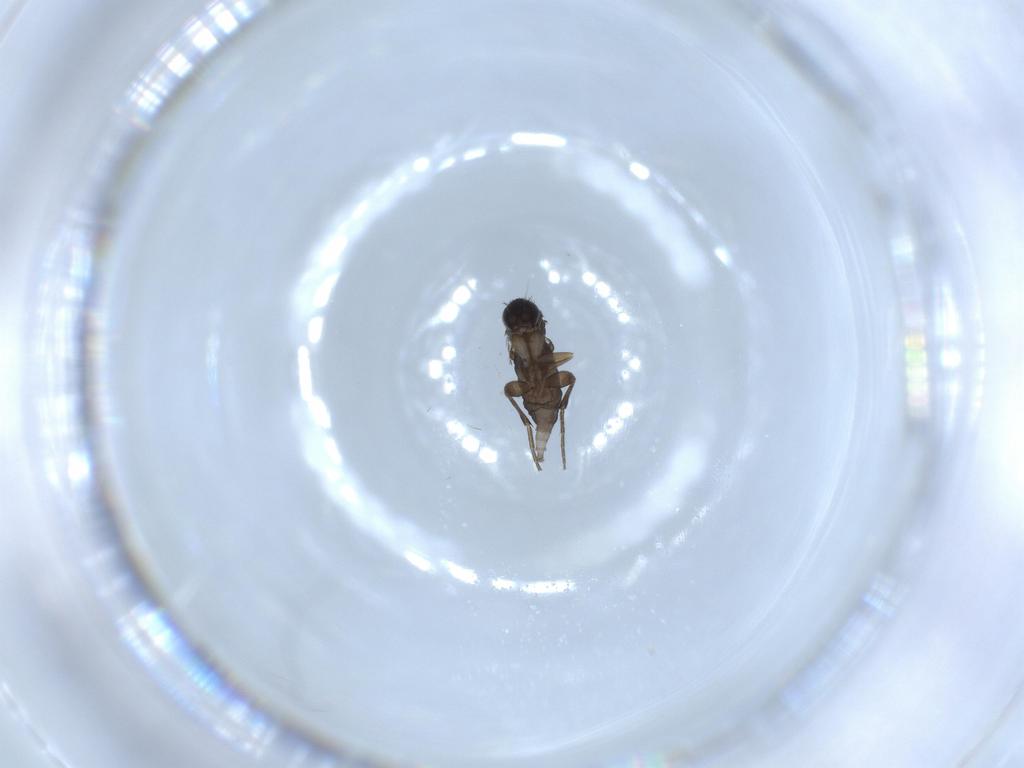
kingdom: Animalia
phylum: Arthropoda
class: Insecta
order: Diptera
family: Phoridae
